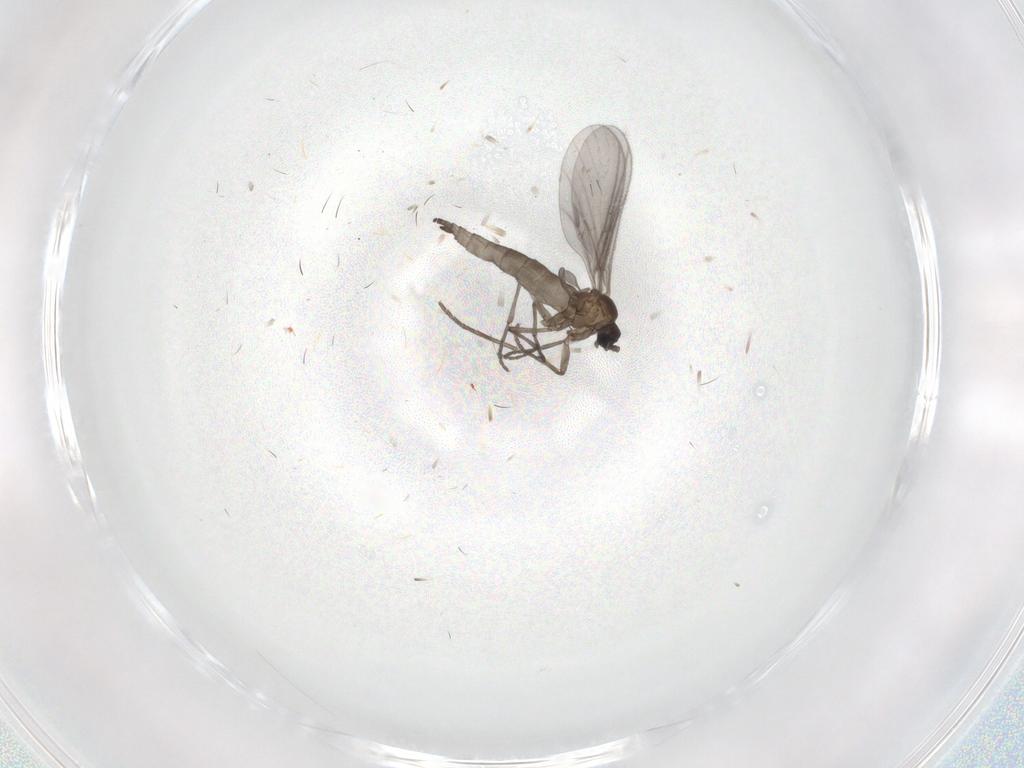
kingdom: Animalia
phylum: Arthropoda
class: Insecta
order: Diptera
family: Sciaridae
